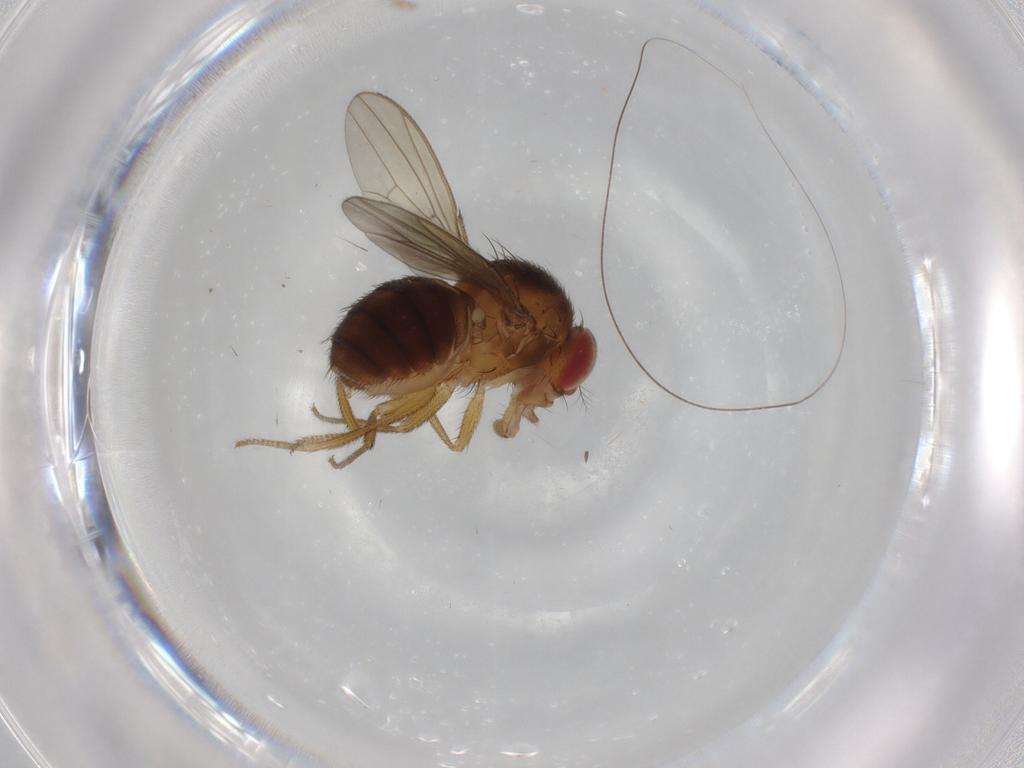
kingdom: Animalia
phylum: Arthropoda
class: Insecta
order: Diptera
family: Drosophilidae
